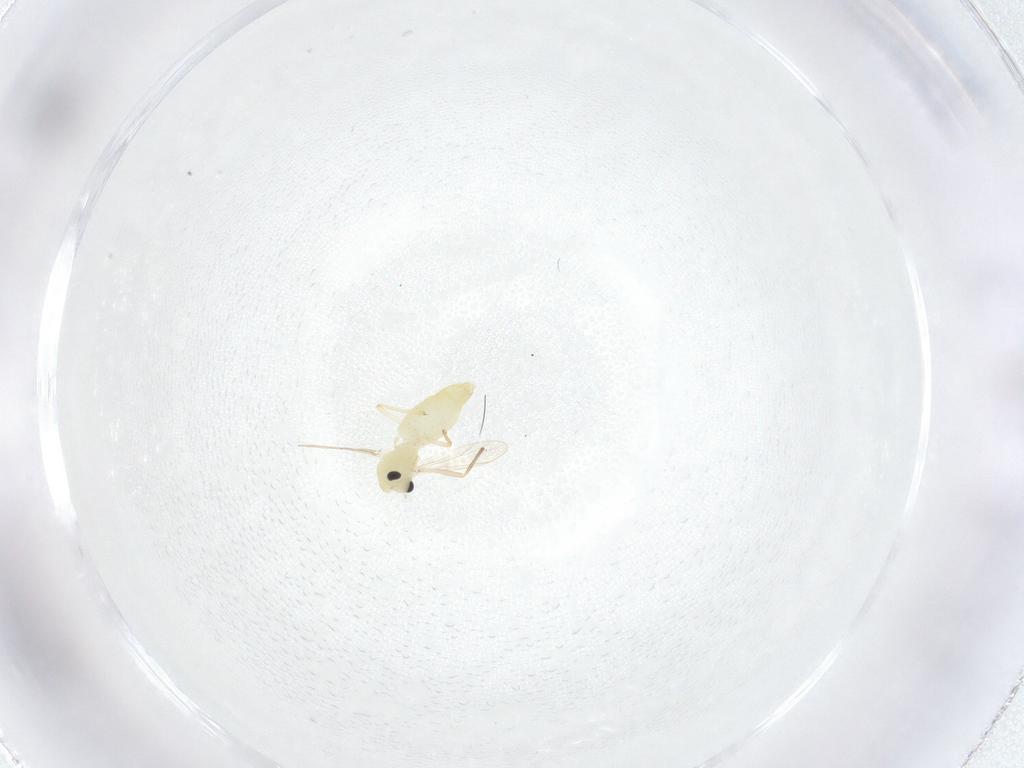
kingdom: Animalia
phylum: Arthropoda
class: Insecta
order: Diptera
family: Chironomidae
